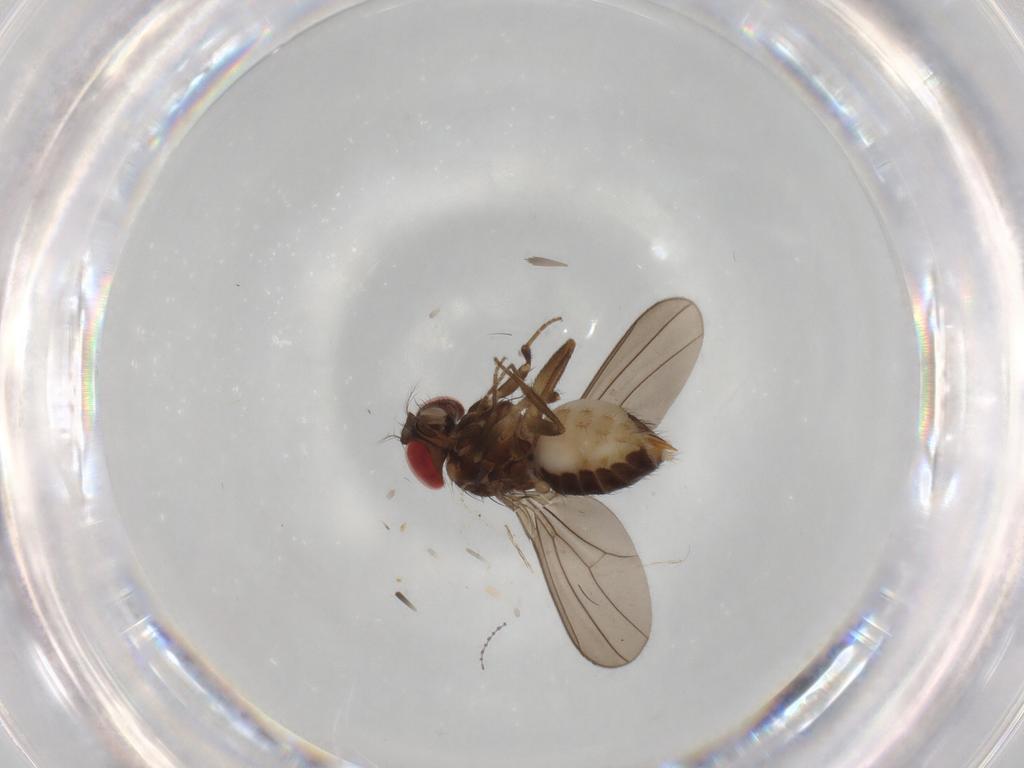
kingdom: Animalia
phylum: Arthropoda
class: Insecta
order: Diptera
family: Drosophilidae
